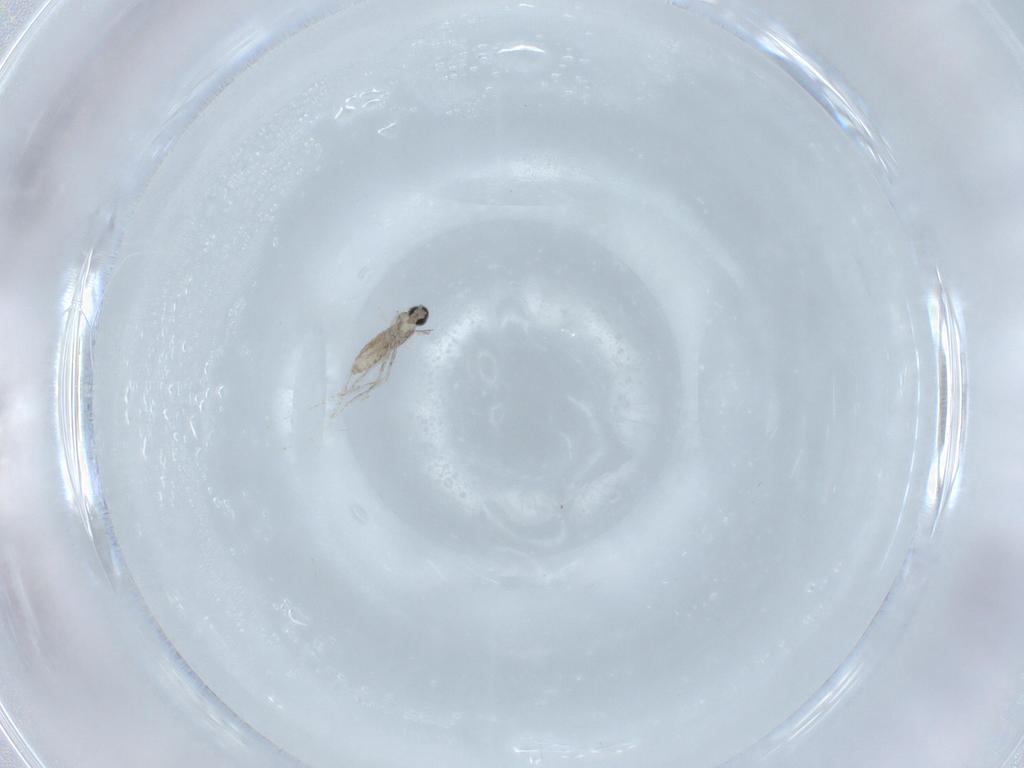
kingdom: Animalia
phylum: Arthropoda
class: Insecta
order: Diptera
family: Cecidomyiidae
